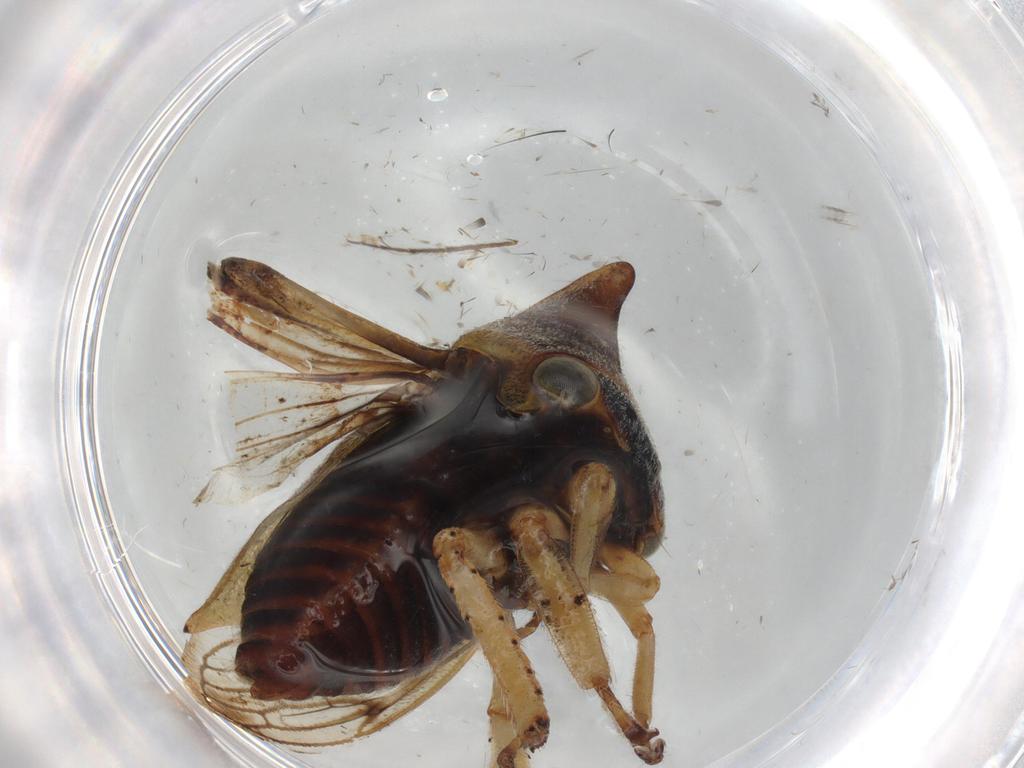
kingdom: Animalia
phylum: Arthropoda
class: Insecta
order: Hemiptera
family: Membracidae
